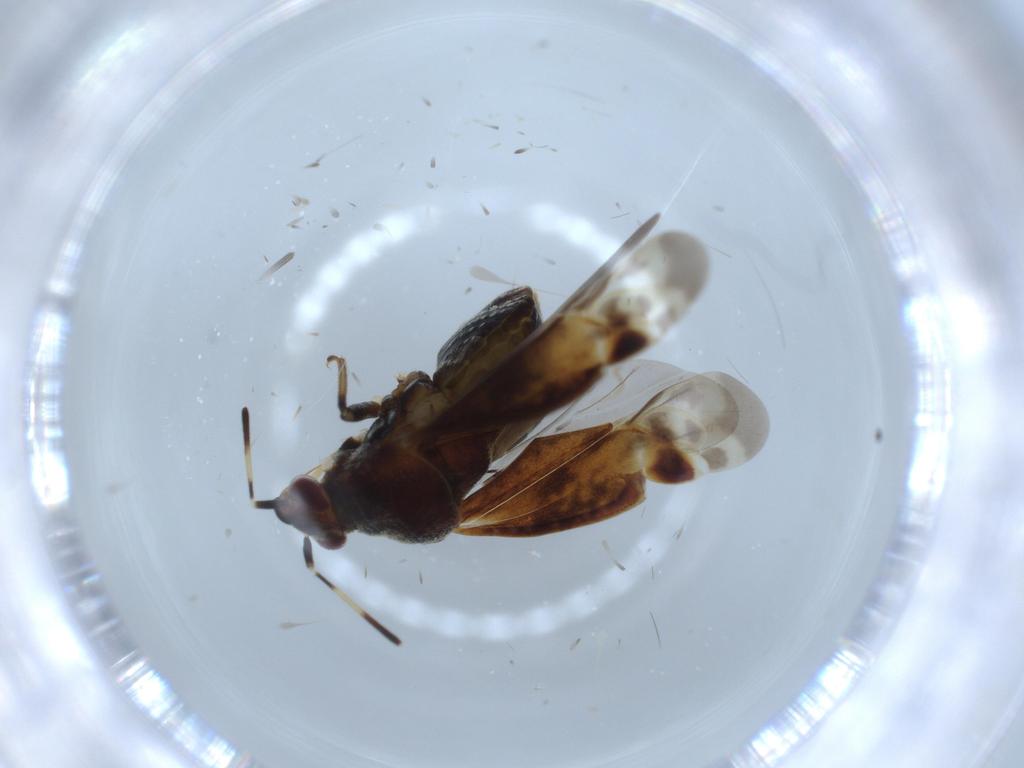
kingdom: Animalia
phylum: Arthropoda
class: Insecta
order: Hemiptera
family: Miridae
